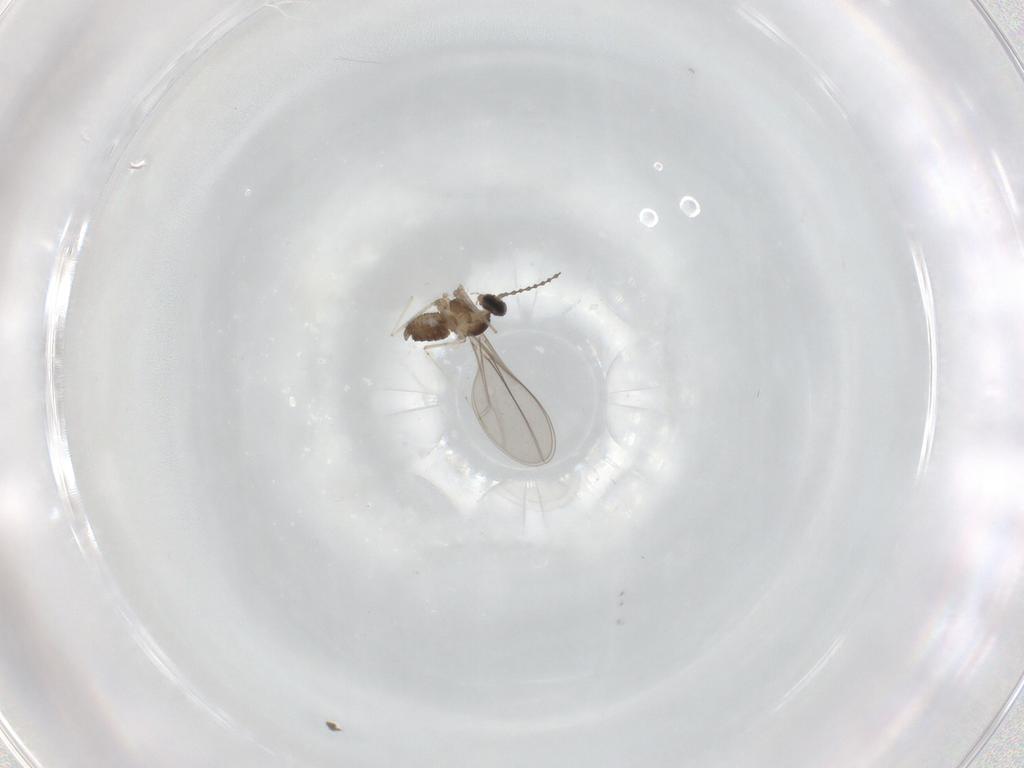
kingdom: Animalia
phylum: Arthropoda
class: Insecta
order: Diptera
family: Cecidomyiidae
